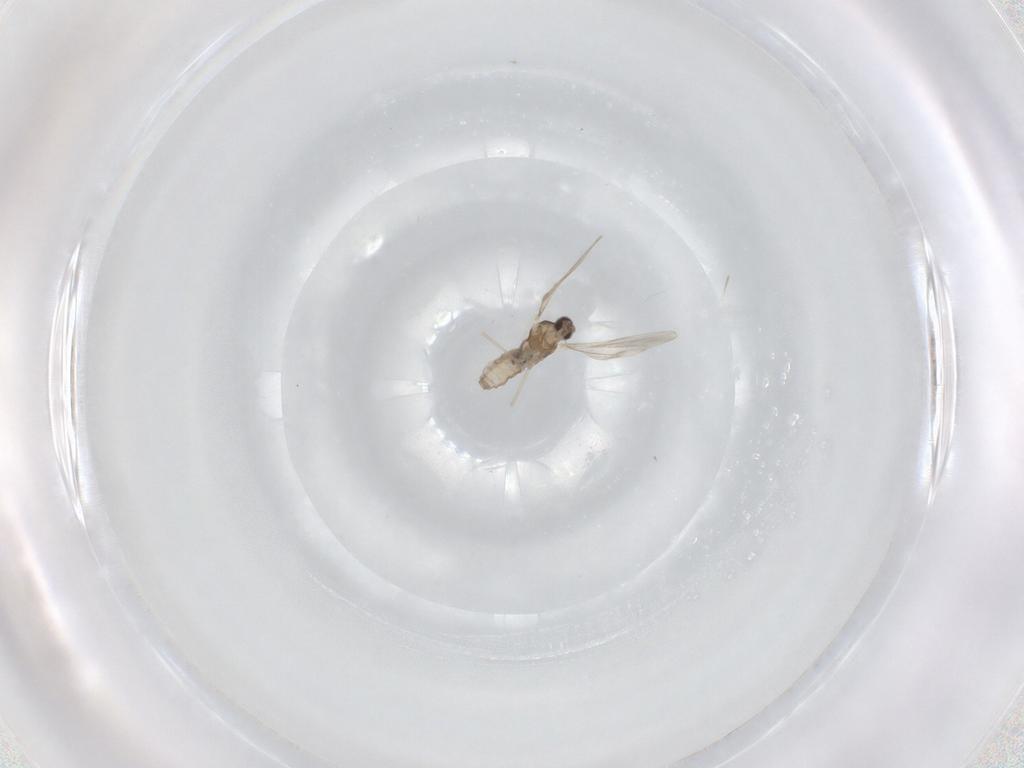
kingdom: Animalia
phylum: Arthropoda
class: Insecta
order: Diptera
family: Cecidomyiidae
